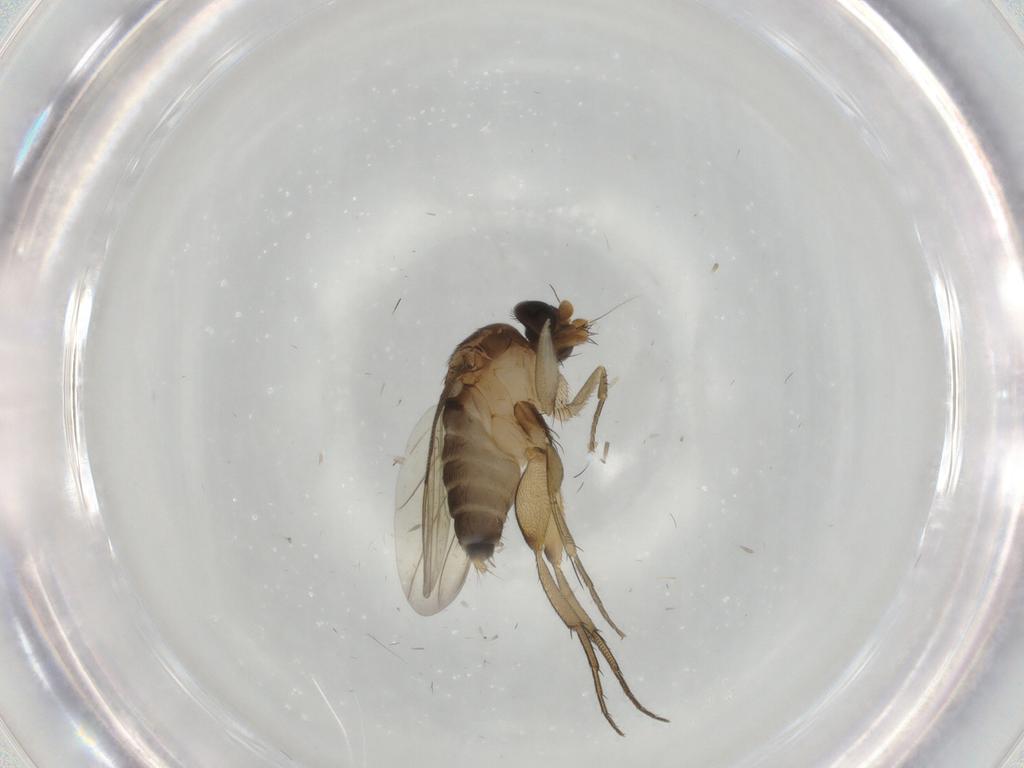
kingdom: Animalia
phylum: Arthropoda
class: Insecta
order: Diptera
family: Phoridae
